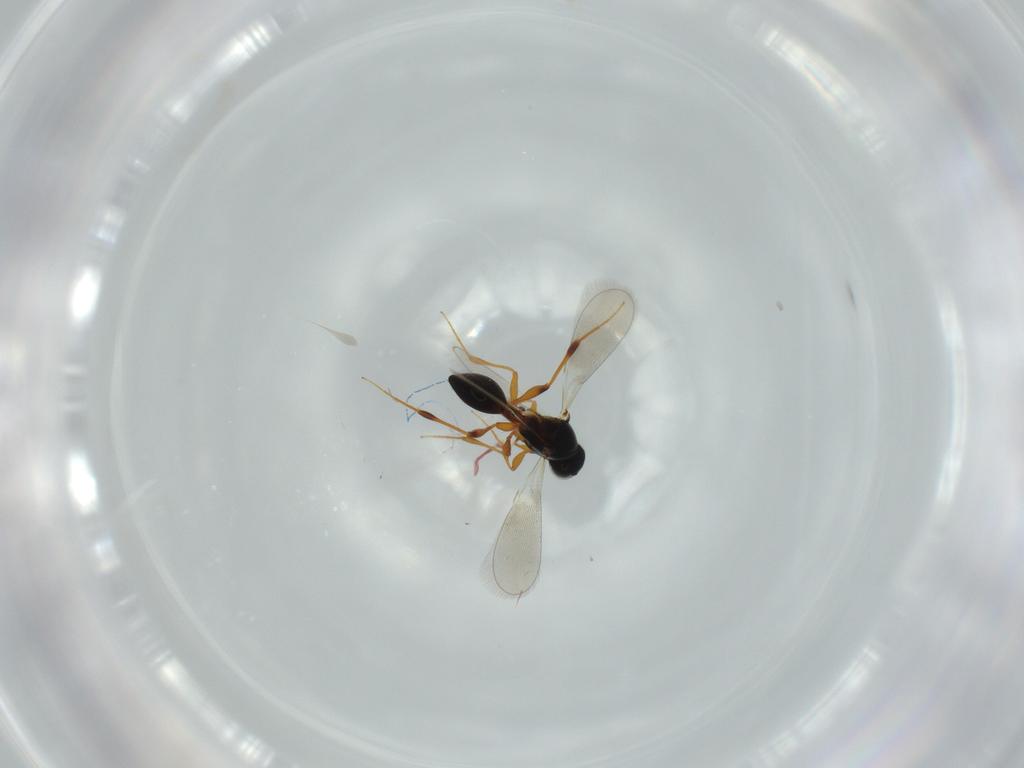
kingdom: Animalia
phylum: Arthropoda
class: Insecta
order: Hymenoptera
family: Platygastridae
